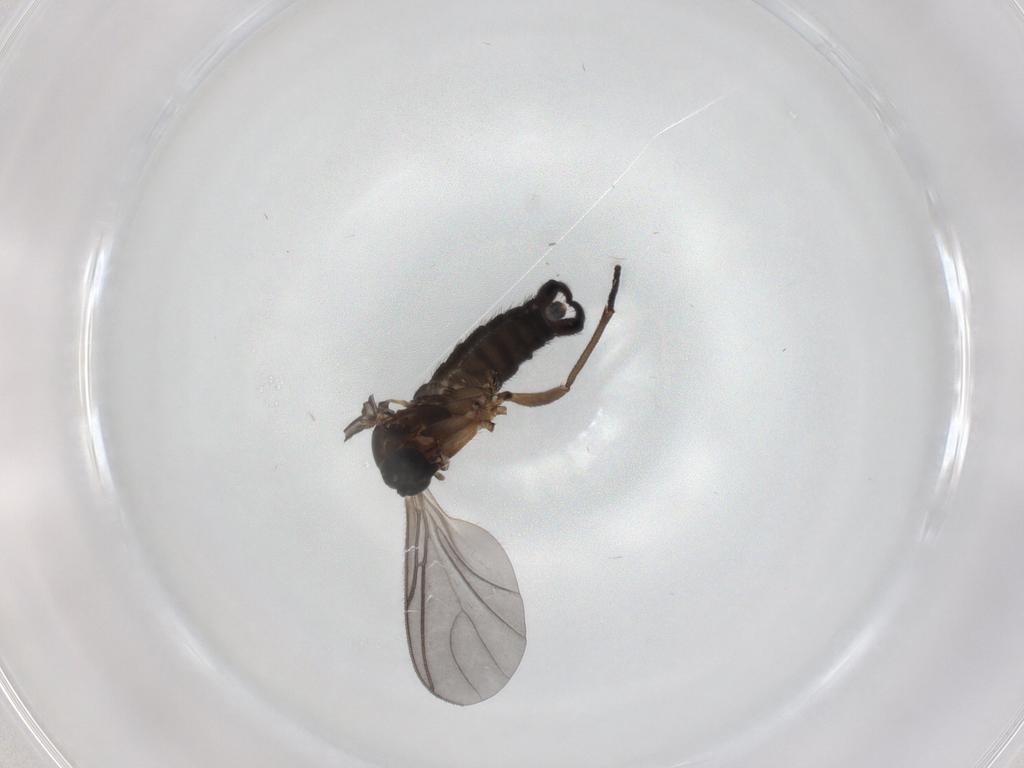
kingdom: Animalia
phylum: Arthropoda
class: Insecta
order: Diptera
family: Sciaridae
